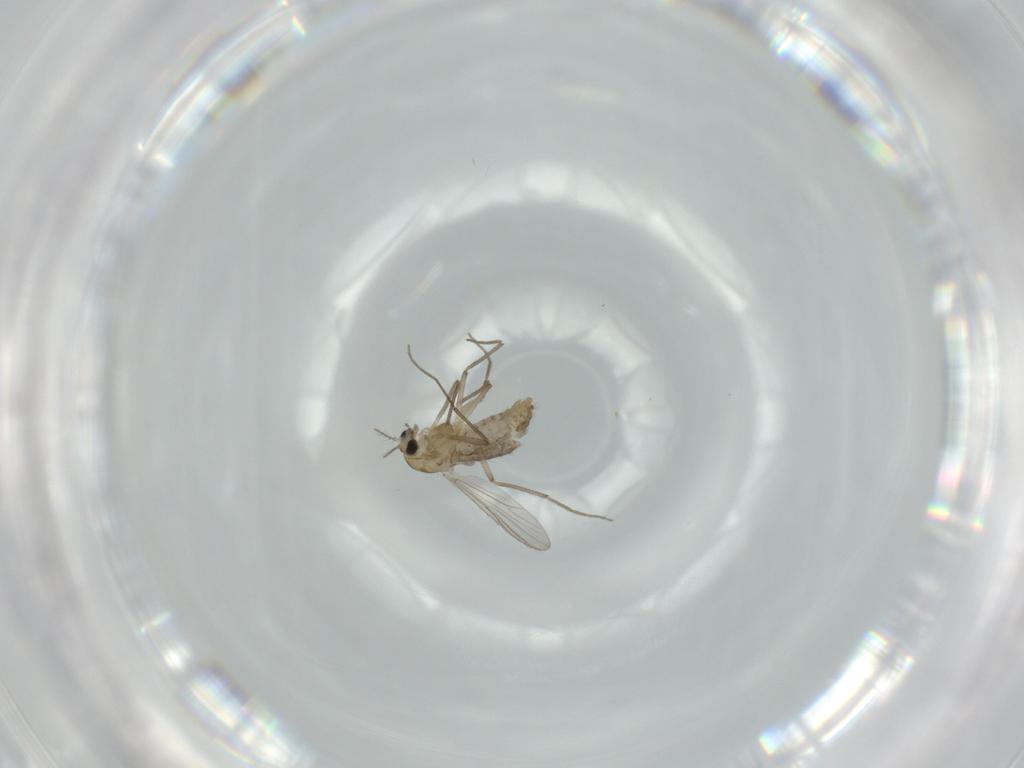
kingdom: Animalia
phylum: Arthropoda
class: Insecta
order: Diptera
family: Chironomidae
